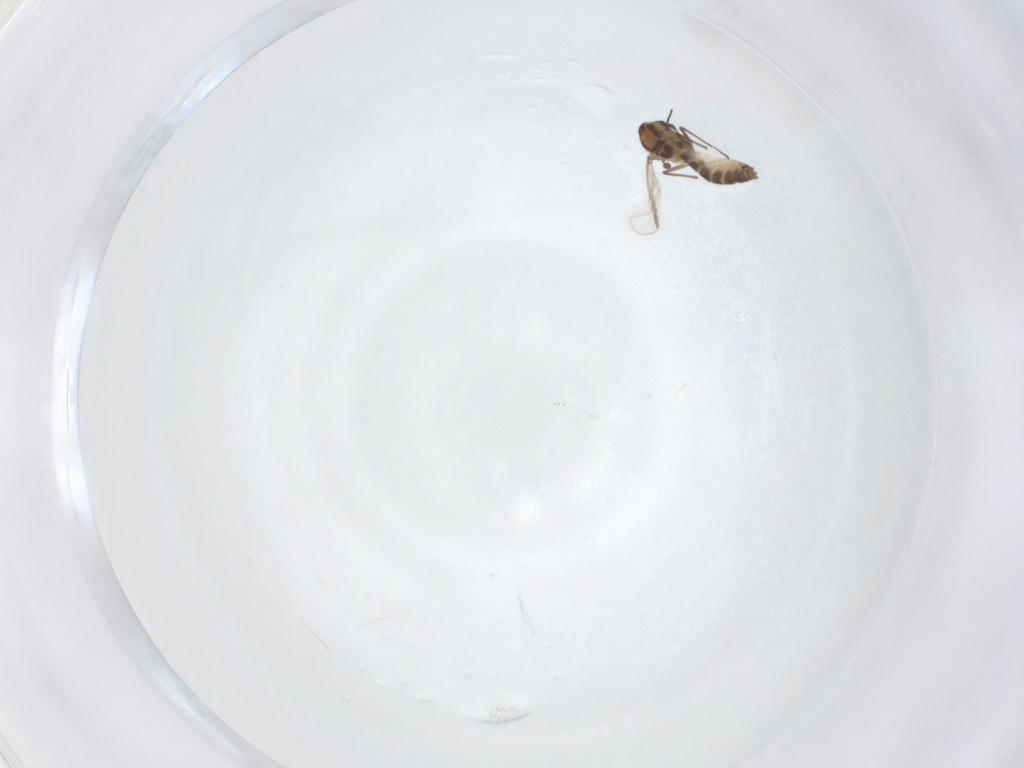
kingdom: Animalia
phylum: Arthropoda
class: Insecta
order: Diptera
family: Chironomidae
